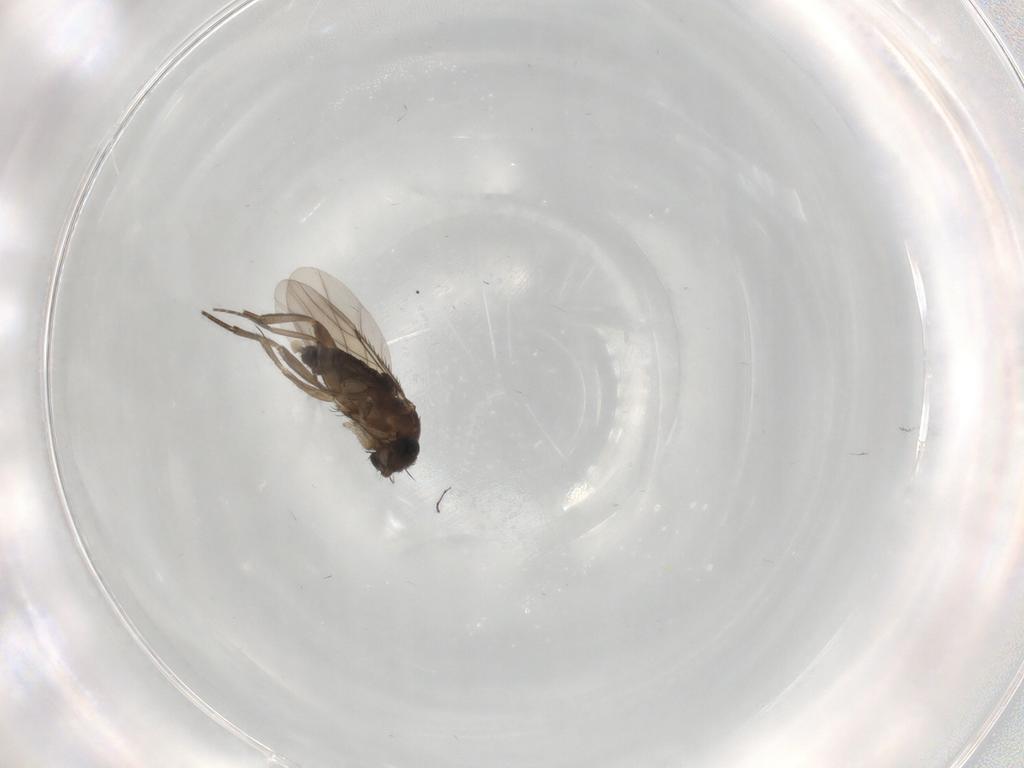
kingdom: Animalia
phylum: Arthropoda
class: Insecta
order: Diptera
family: Phoridae
